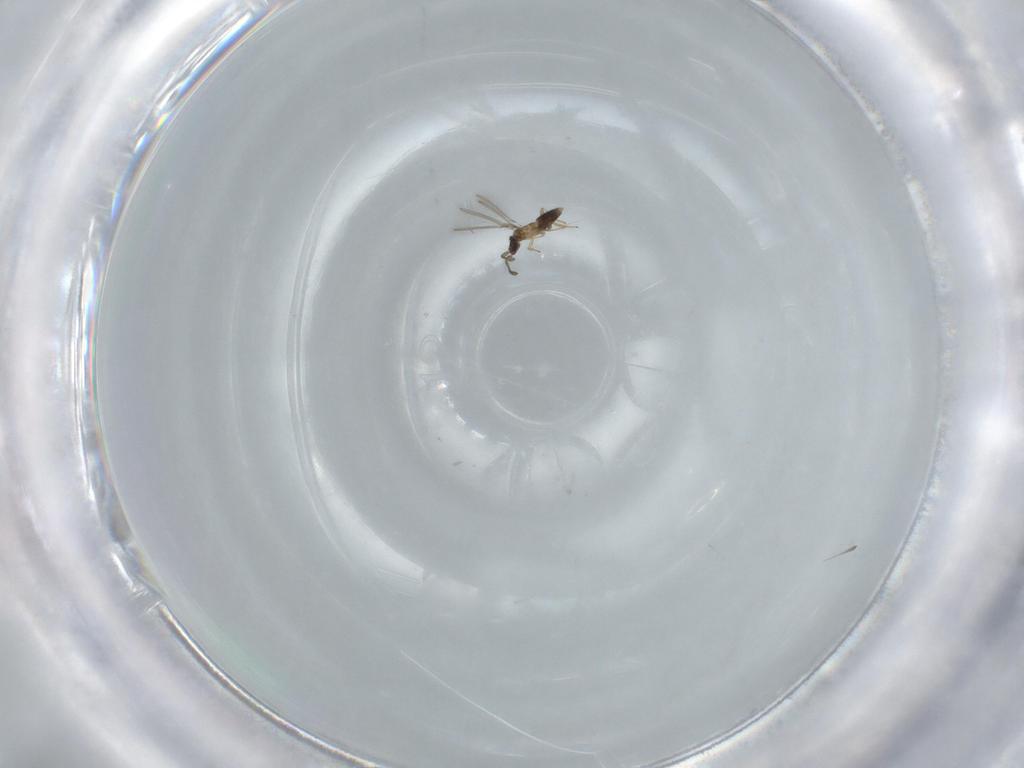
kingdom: Animalia
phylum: Arthropoda
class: Insecta
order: Hymenoptera
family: Mymaridae
